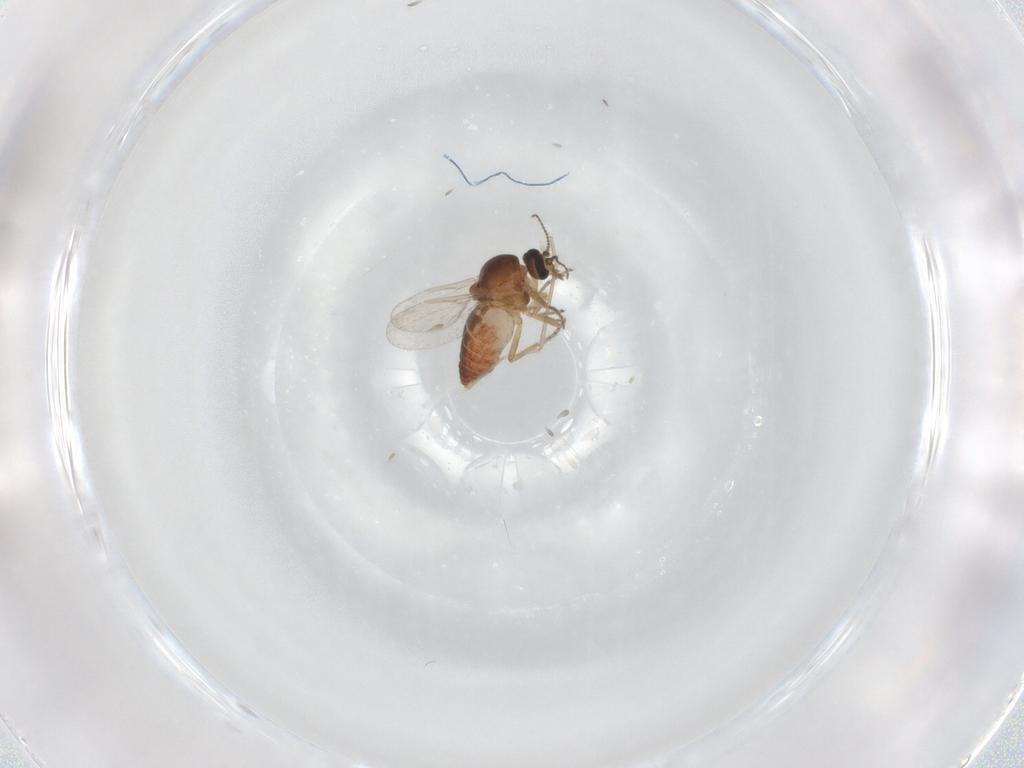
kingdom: Animalia
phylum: Arthropoda
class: Insecta
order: Diptera
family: Ceratopogonidae
